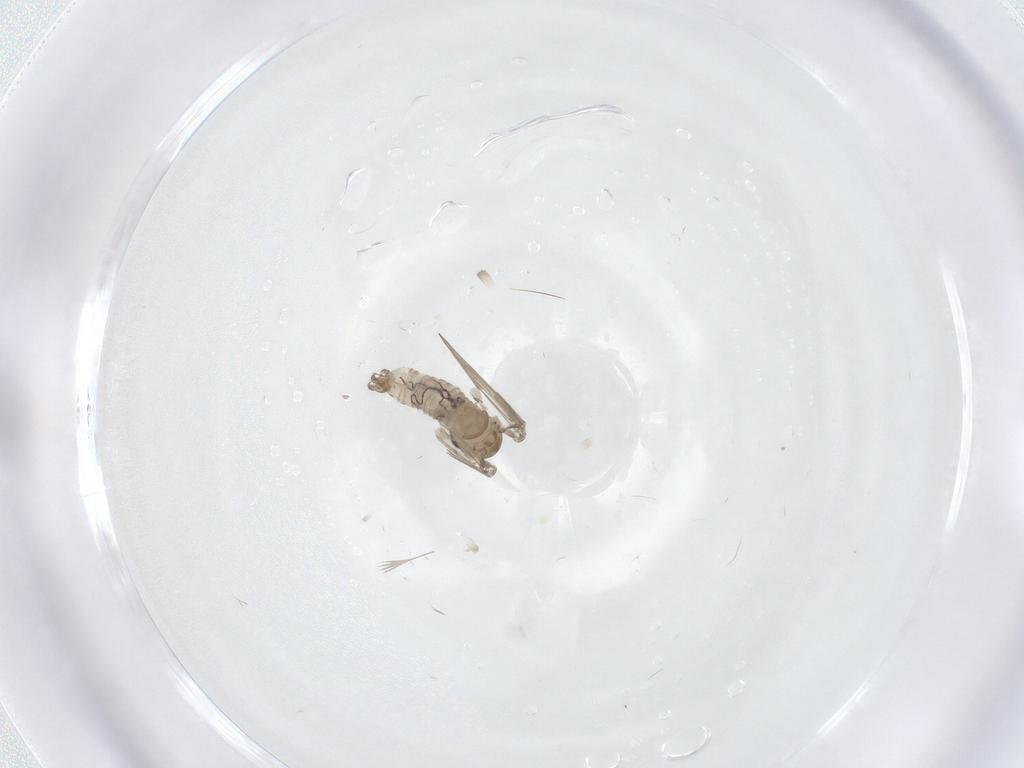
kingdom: Animalia
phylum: Arthropoda
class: Insecta
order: Diptera
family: Psychodidae
